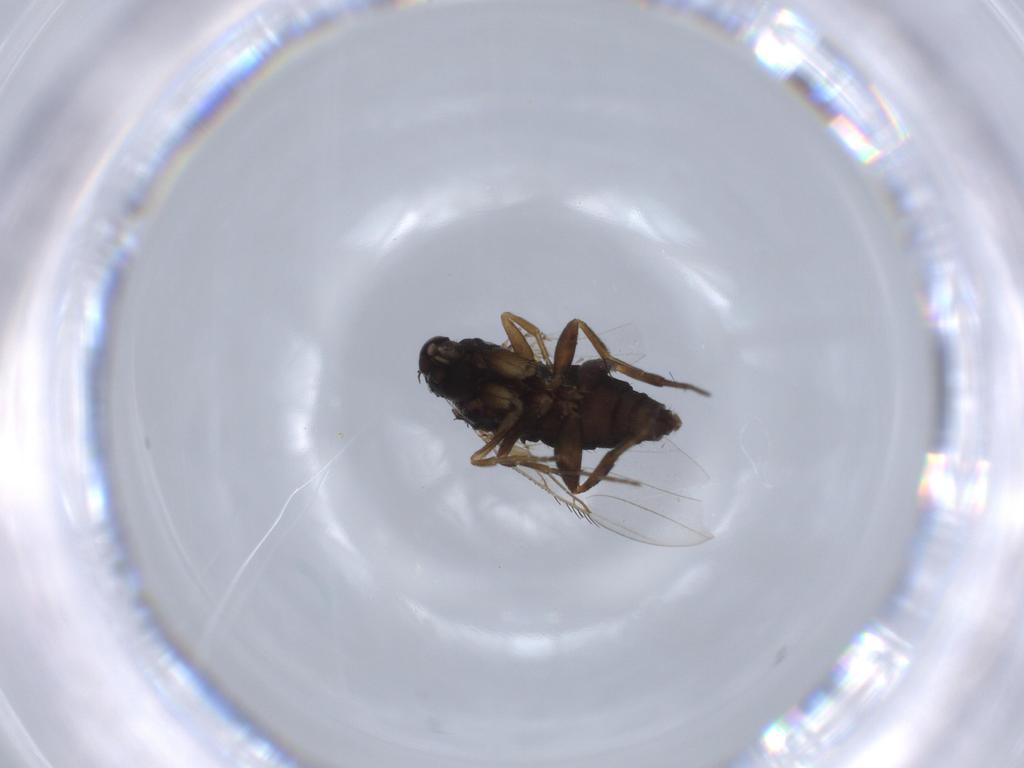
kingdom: Animalia
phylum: Arthropoda
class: Insecta
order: Diptera
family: Phoridae
